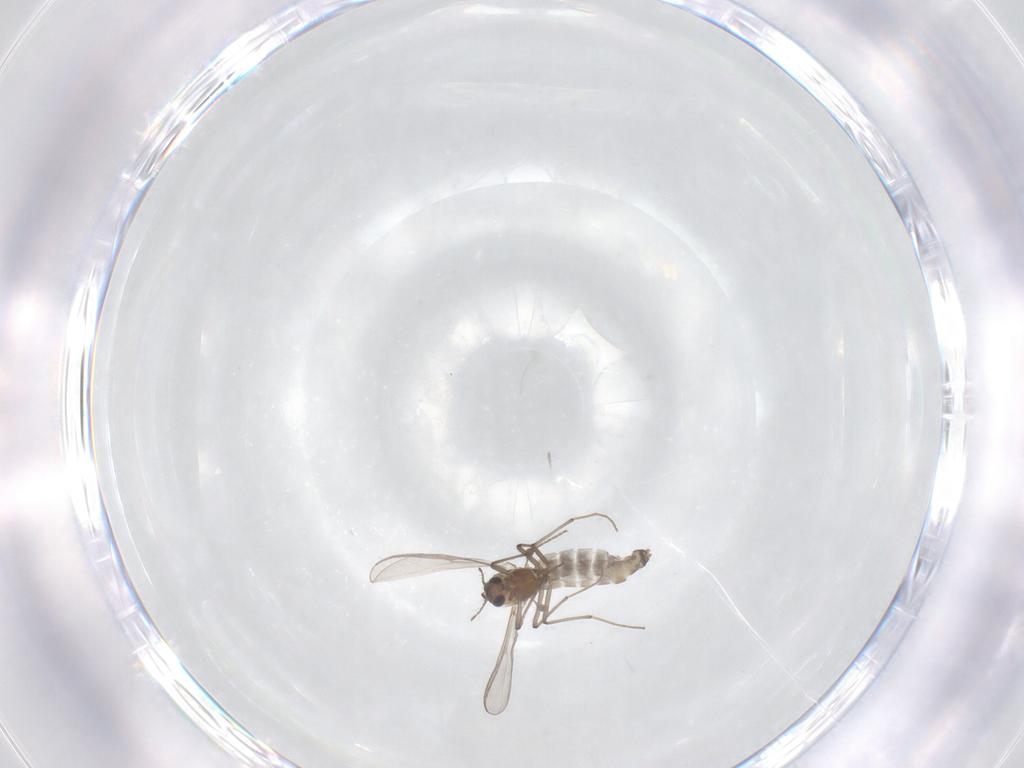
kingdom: Animalia
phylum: Arthropoda
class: Insecta
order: Diptera
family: Chironomidae
